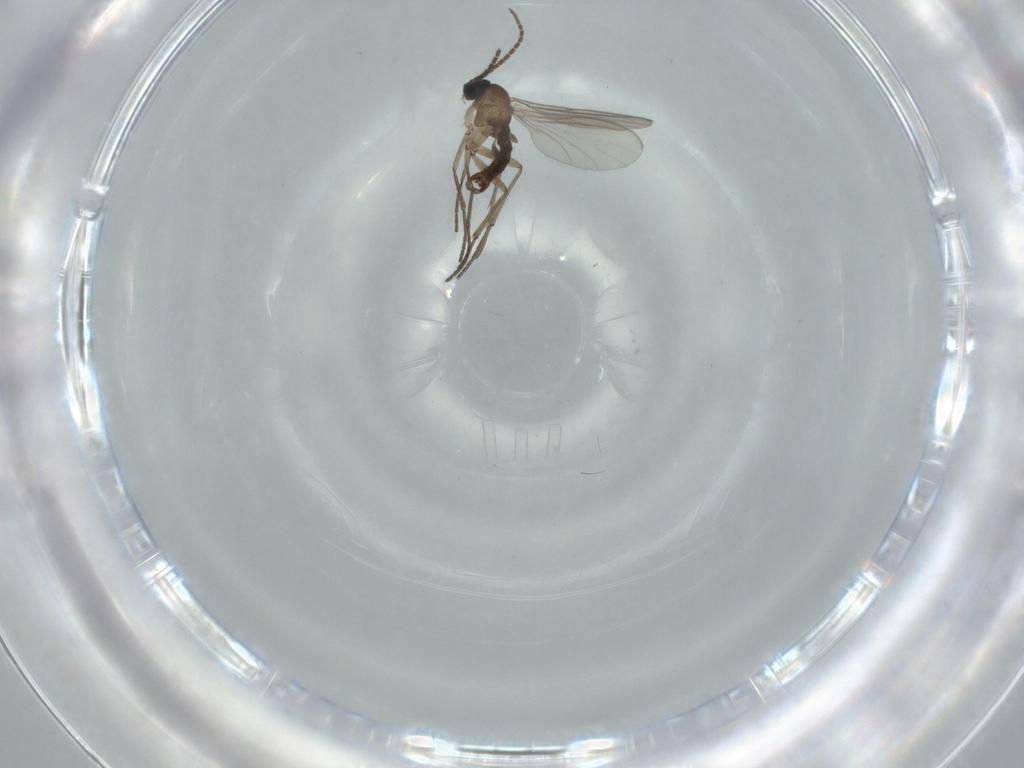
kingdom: Animalia
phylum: Arthropoda
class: Insecta
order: Diptera
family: Sciaridae
